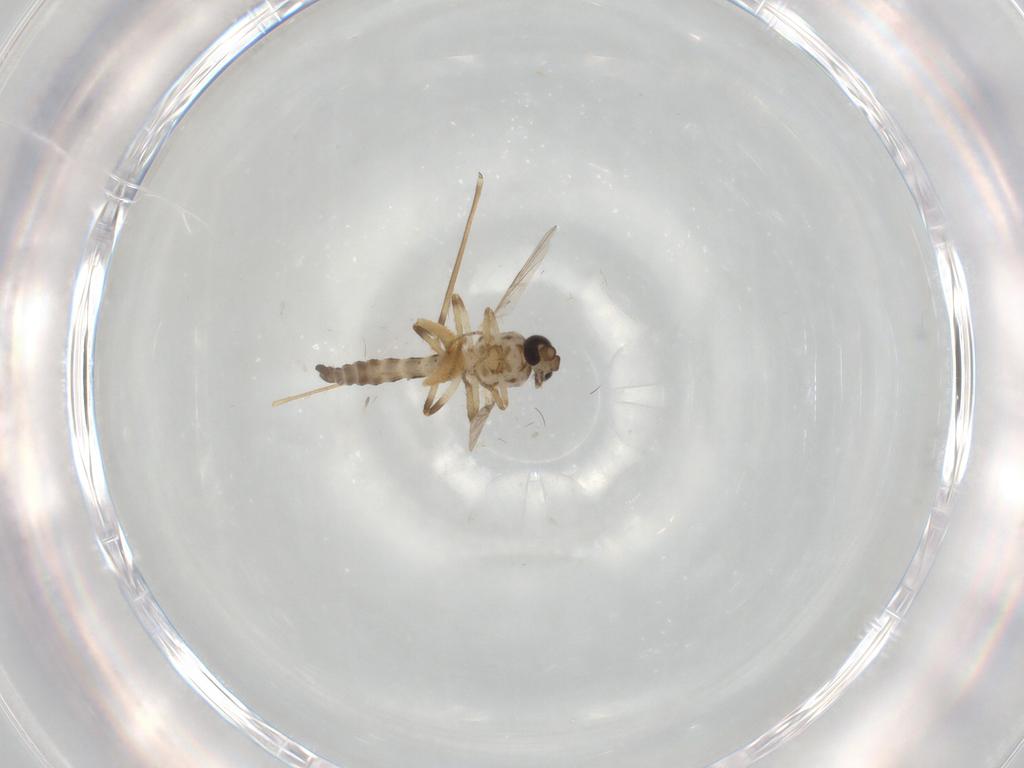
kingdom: Animalia
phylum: Arthropoda
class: Insecta
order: Diptera
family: Ceratopogonidae
